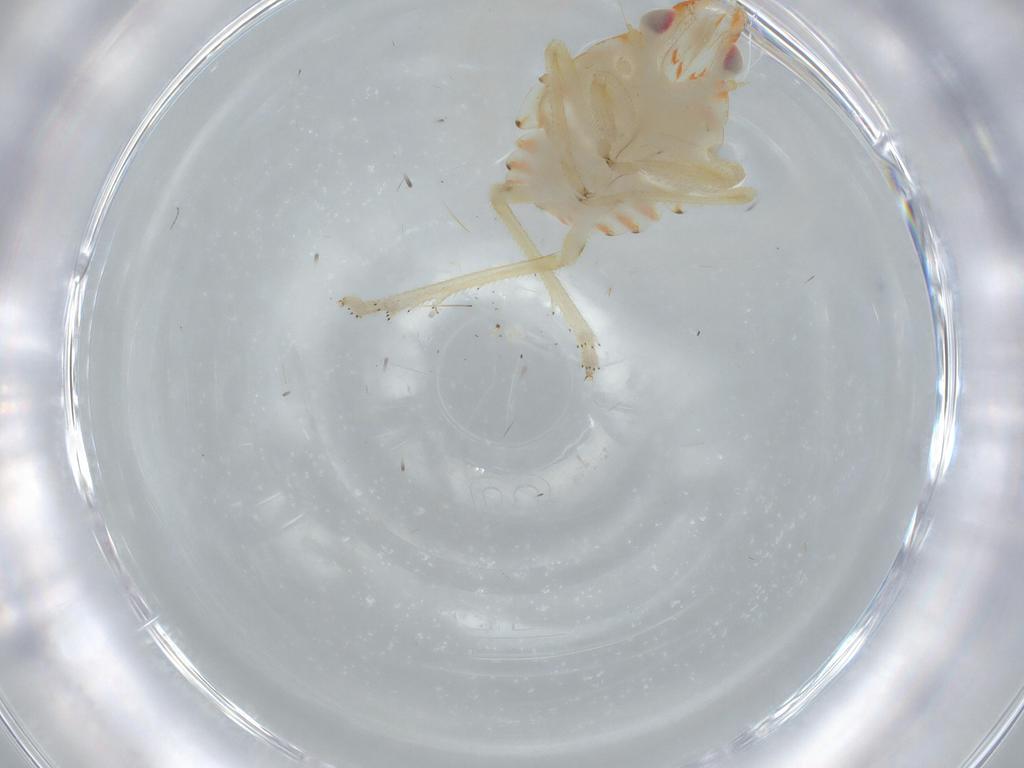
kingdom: Animalia
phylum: Arthropoda
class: Insecta
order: Hemiptera
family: Tropiduchidae
